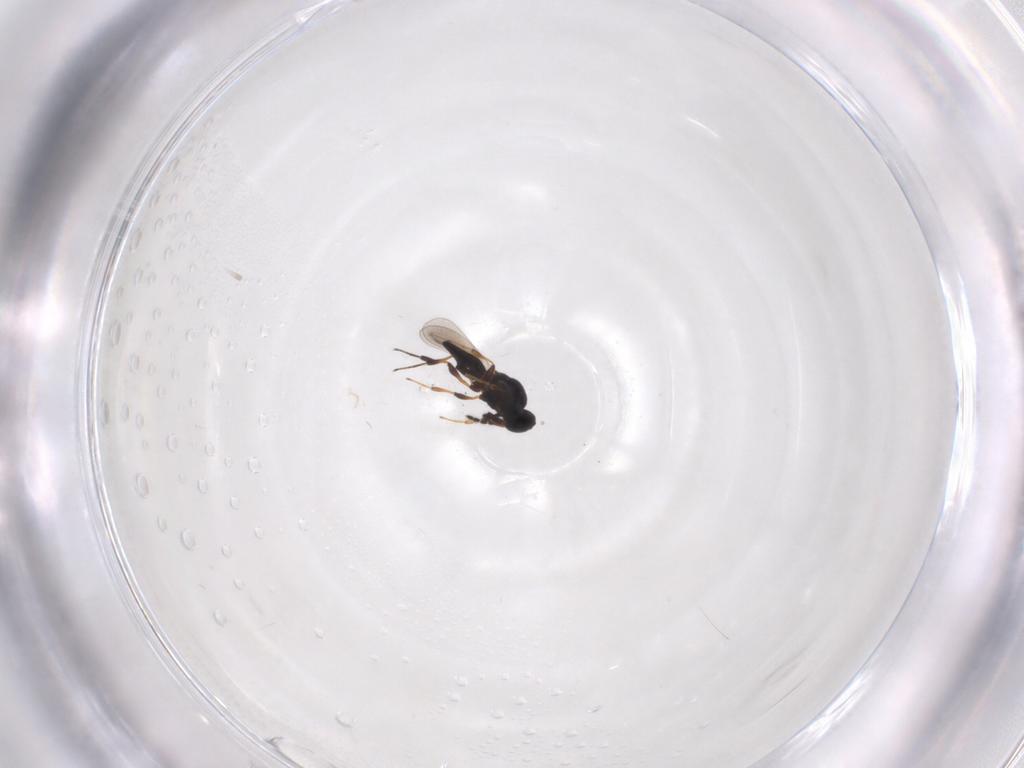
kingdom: Animalia
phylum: Arthropoda
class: Insecta
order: Hymenoptera
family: Platygastridae
